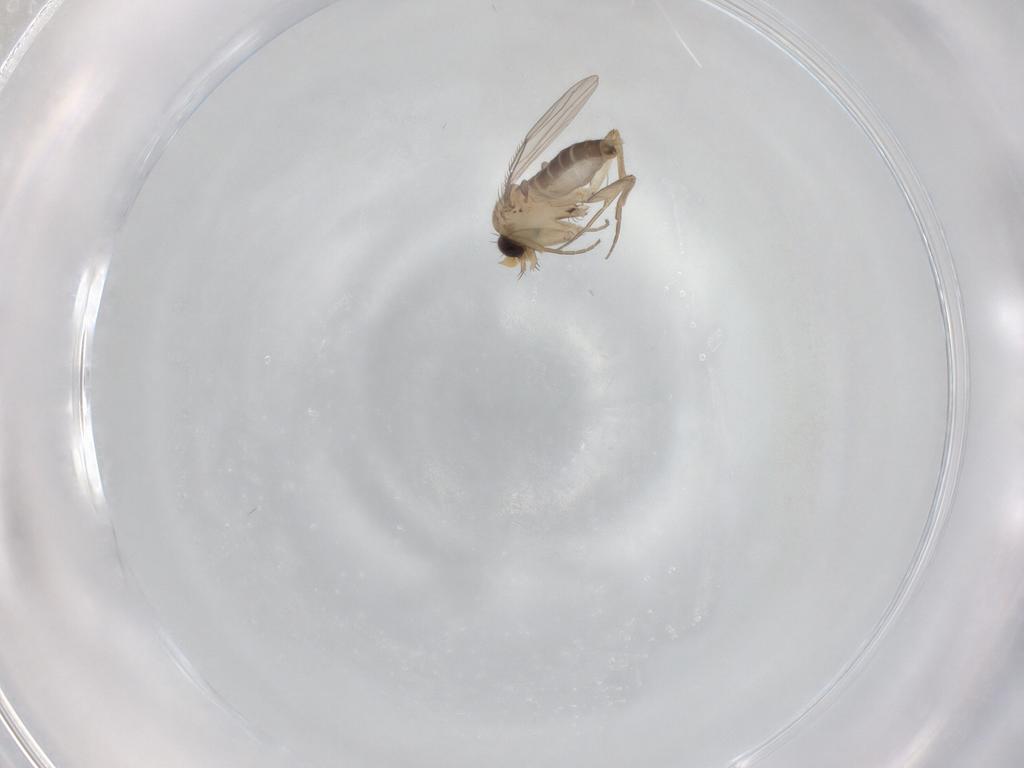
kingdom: Animalia
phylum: Arthropoda
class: Insecta
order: Diptera
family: Phoridae
